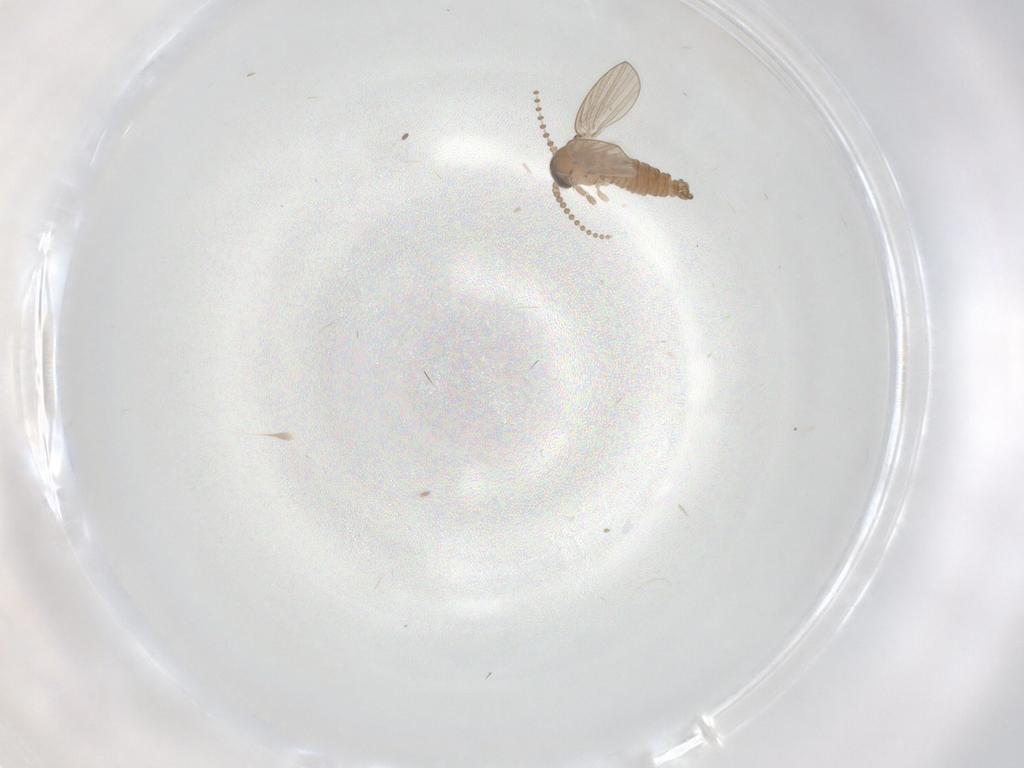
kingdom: Animalia
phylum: Arthropoda
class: Insecta
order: Diptera
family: Psychodidae
